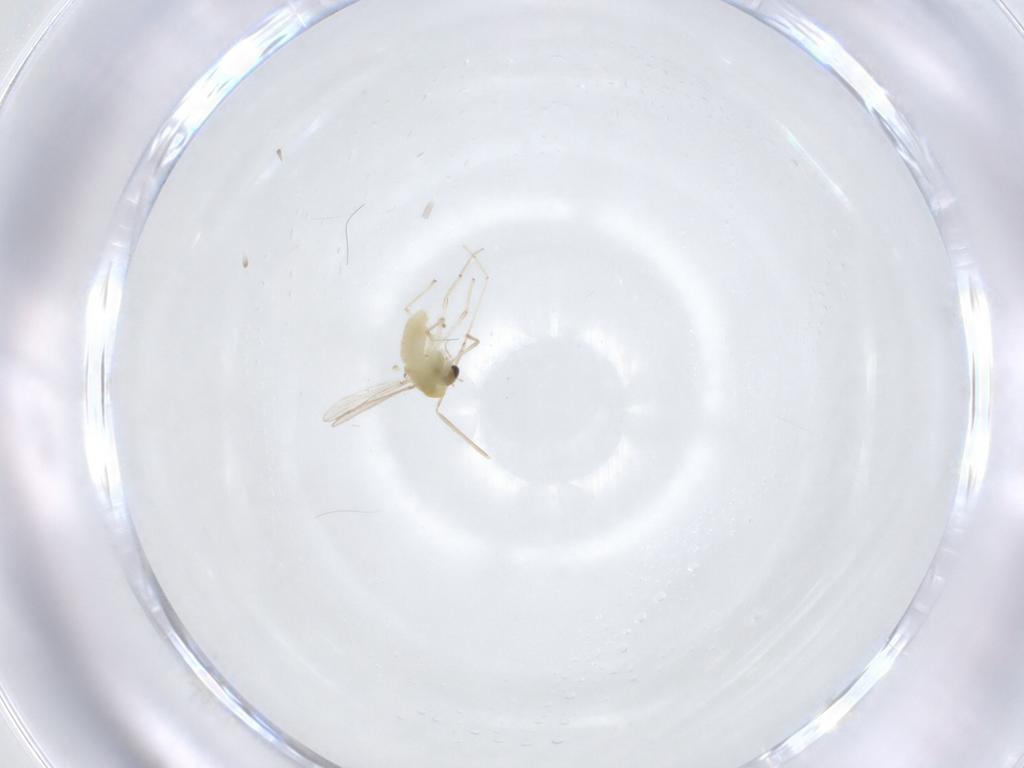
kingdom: Animalia
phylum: Arthropoda
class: Insecta
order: Diptera
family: Chironomidae
